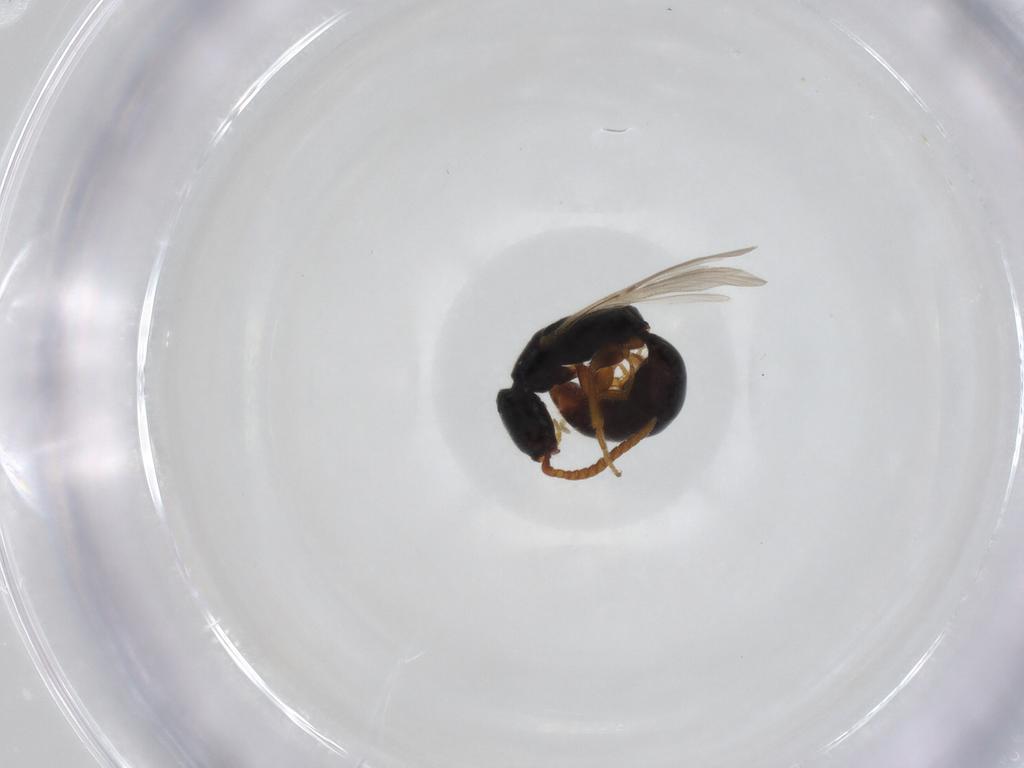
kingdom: Animalia
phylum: Arthropoda
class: Insecta
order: Hymenoptera
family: Bethylidae
